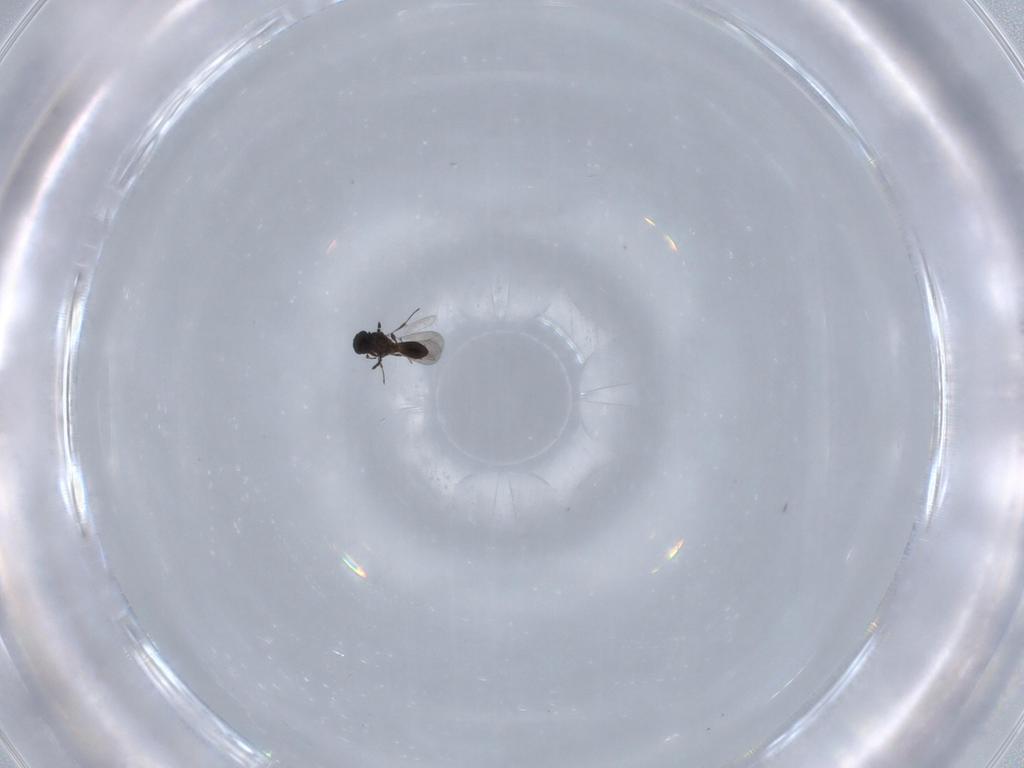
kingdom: Animalia
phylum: Arthropoda
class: Insecta
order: Hymenoptera
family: Platygastridae
